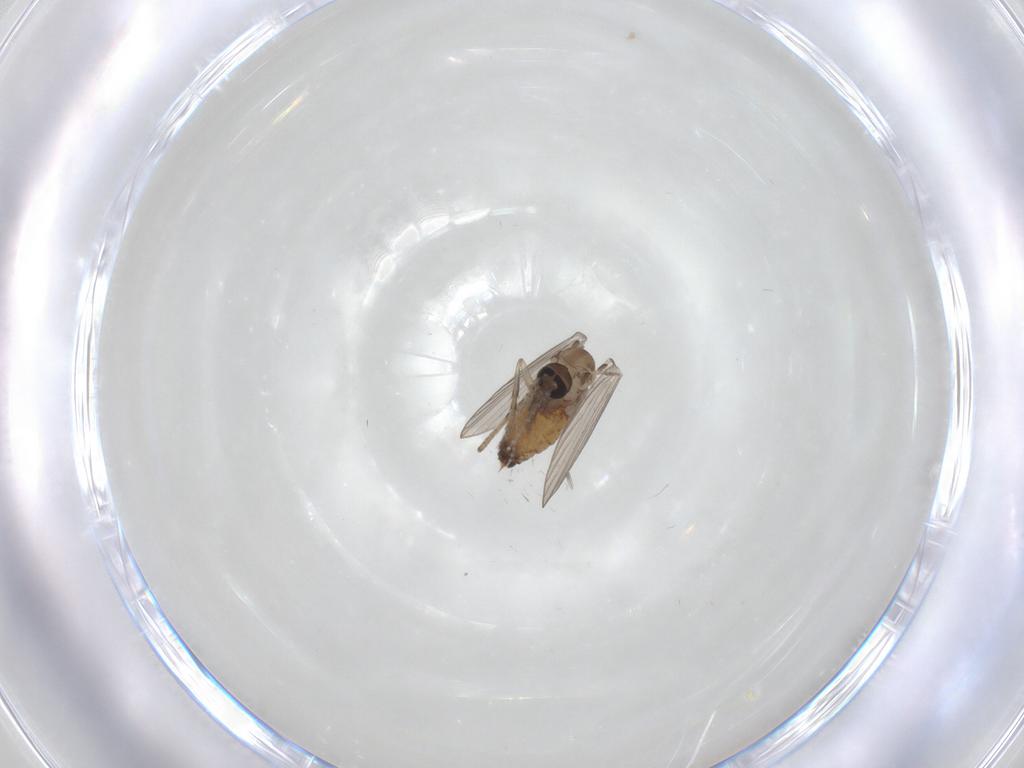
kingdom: Animalia
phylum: Arthropoda
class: Insecta
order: Diptera
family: Psychodidae
